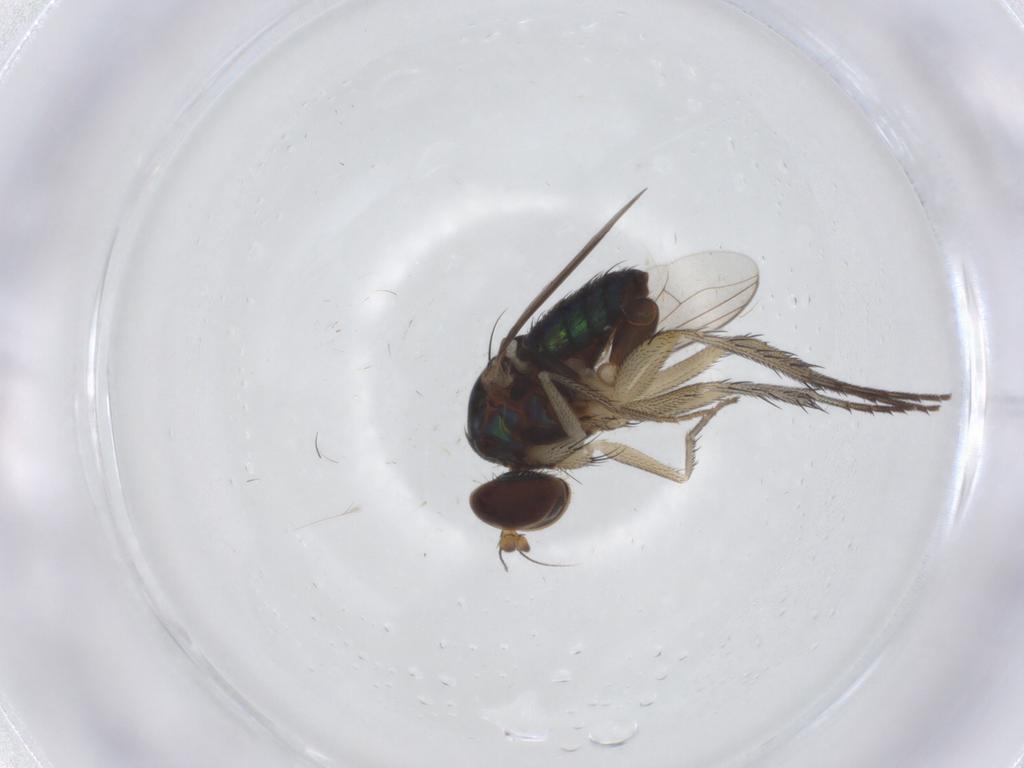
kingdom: Animalia
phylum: Arthropoda
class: Insecta
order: Diptera
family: Dolichopodidae
